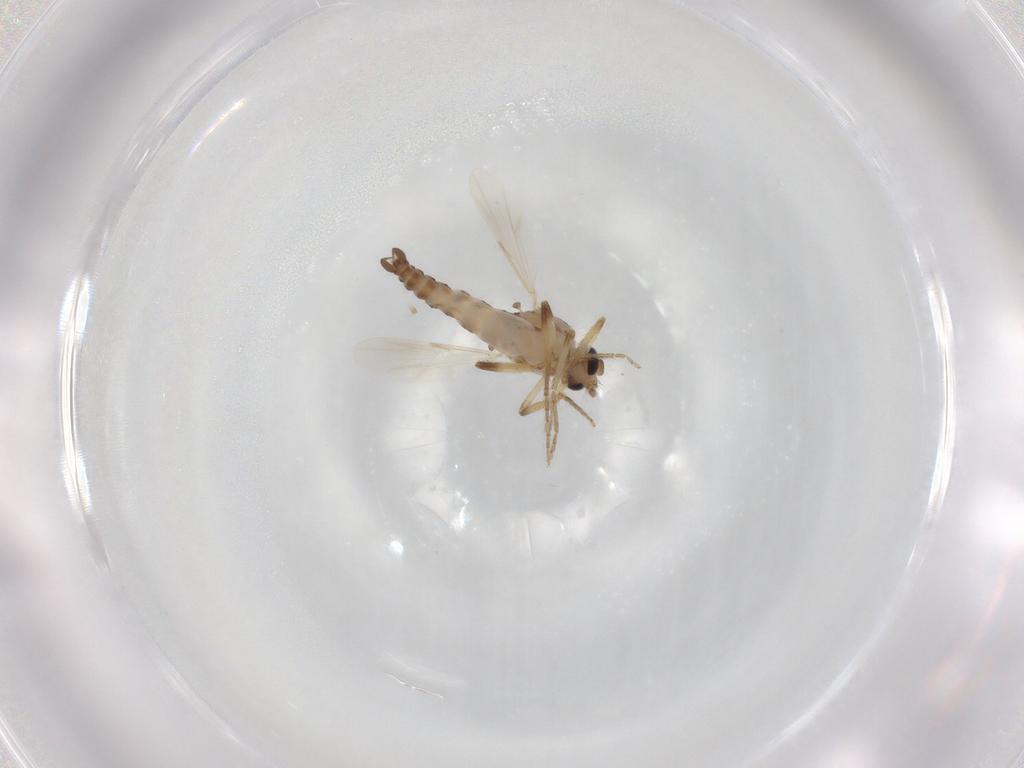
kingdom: Animalia
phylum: Arthropoda
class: Insecta
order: Diptera
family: Ceratopogonidae
